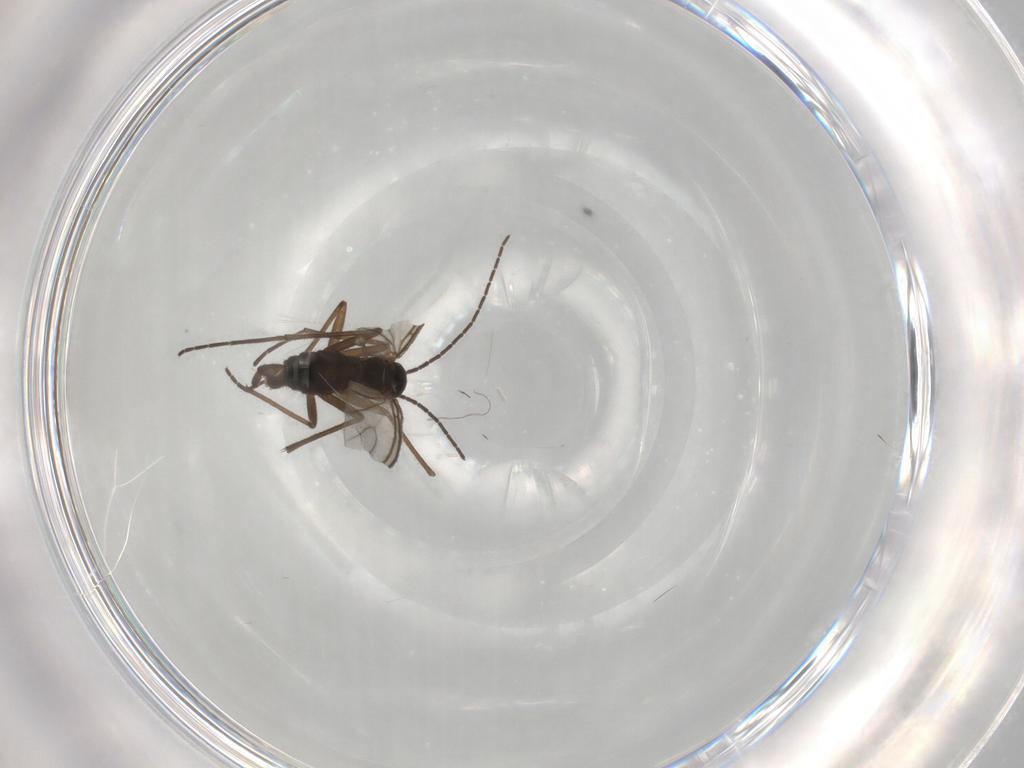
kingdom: Animalia
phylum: Arthropoda
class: Insecta
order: Diptera
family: Sciaridae
